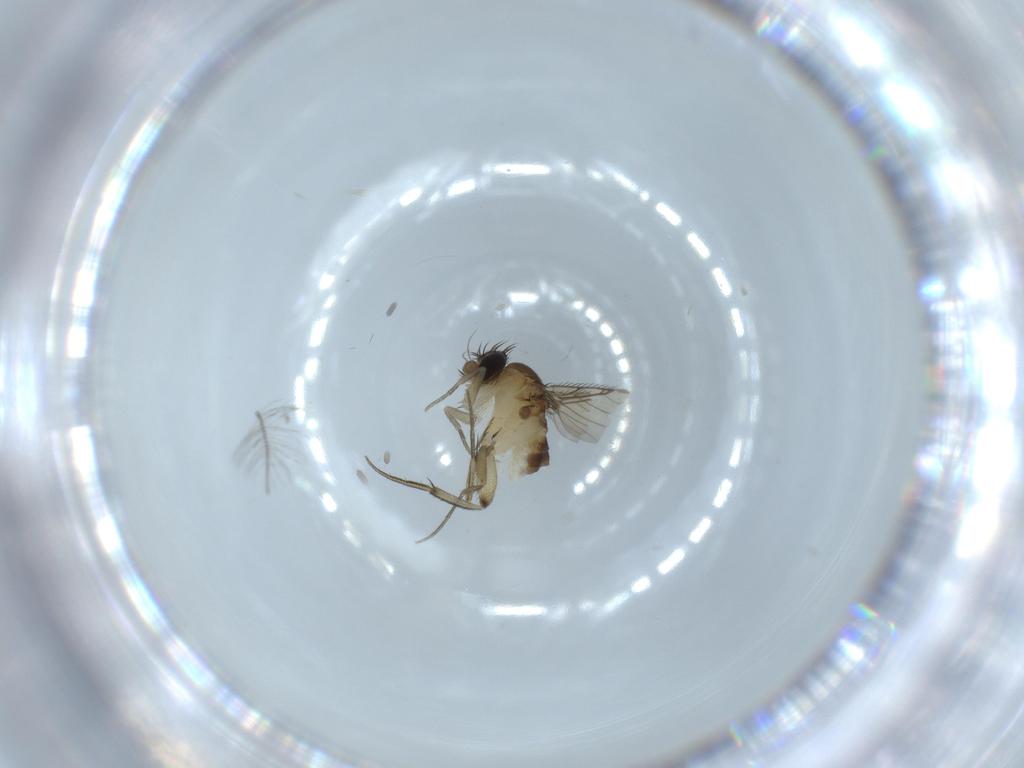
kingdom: Animalia
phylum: Arthropoda
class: Insecta
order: Diptera
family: Phoridae
